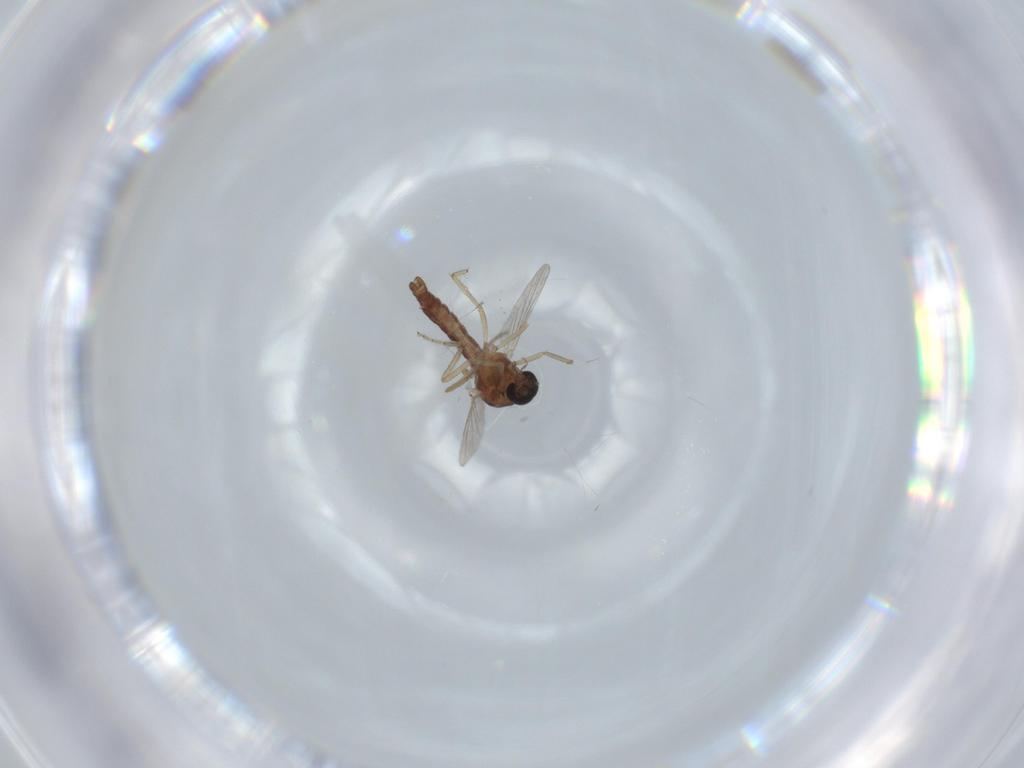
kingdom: Animalia
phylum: Arthropoda
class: Insecta
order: Diptera
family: Ceratopogonidae
